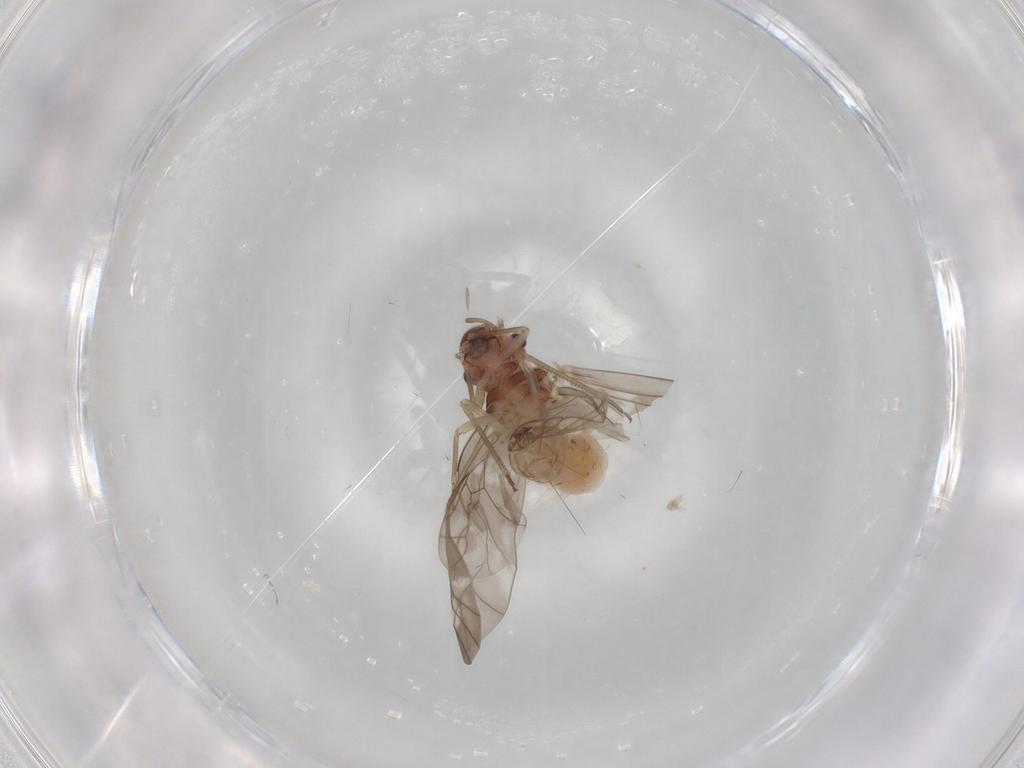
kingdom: Animalia
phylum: Arthropoda
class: Insecta
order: Psocodea
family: Peripsocidae
